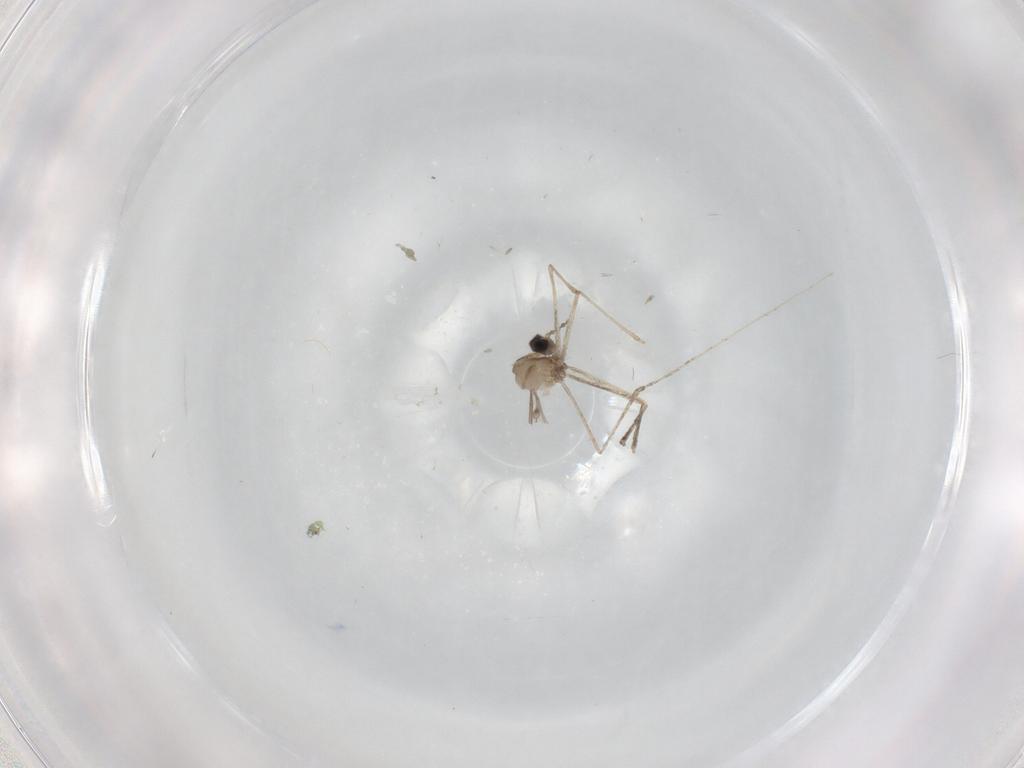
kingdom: Animalia
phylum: Arthropoda
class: Insecta
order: Diptera
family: Cecidomyiidae
